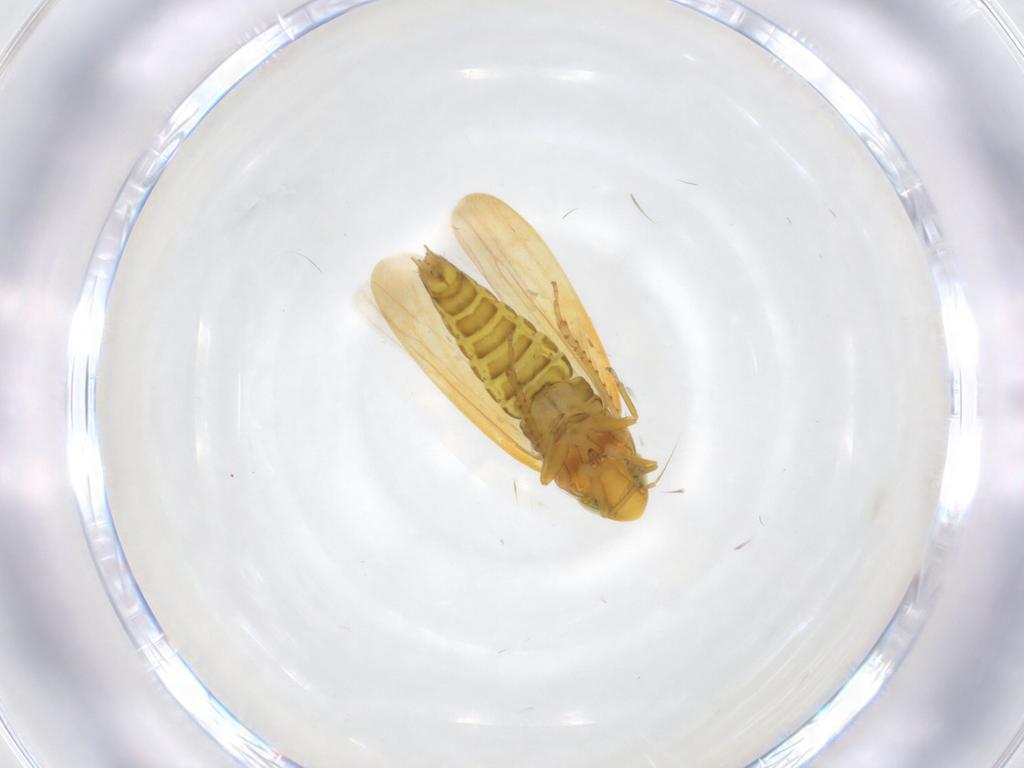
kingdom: Animalia
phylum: Arthropoda
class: Insecta
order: Hemiptera
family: Cicadellidae
